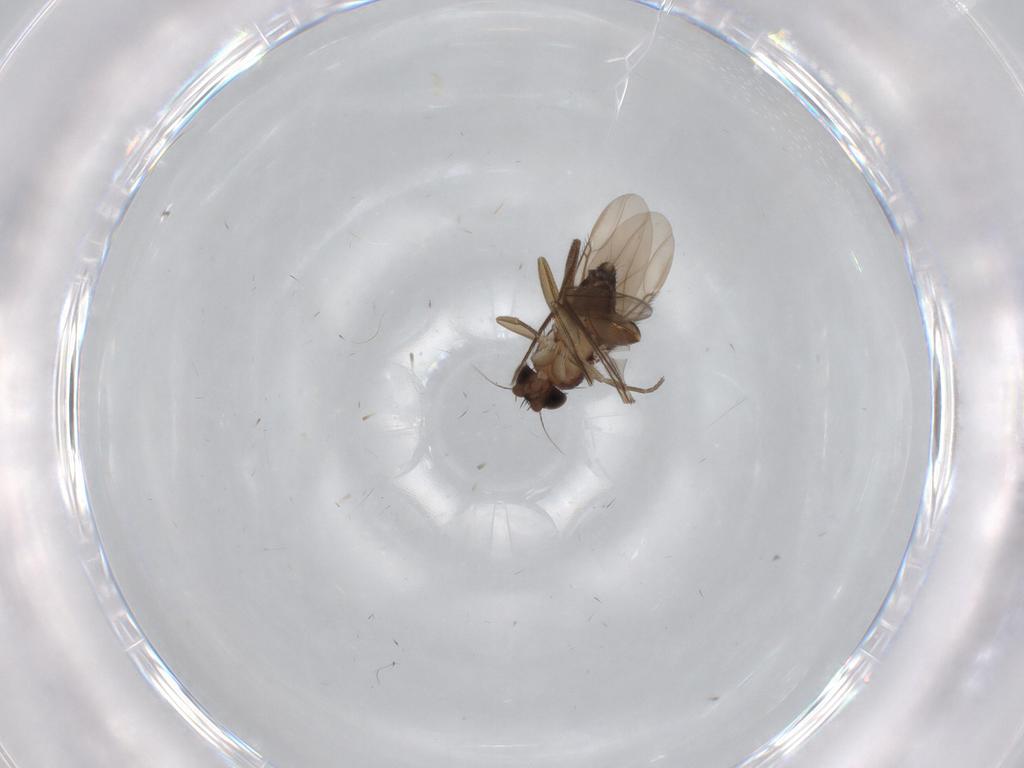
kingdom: Animalia
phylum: Arthropoda
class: Insecta
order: Diptera
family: Phoridae
